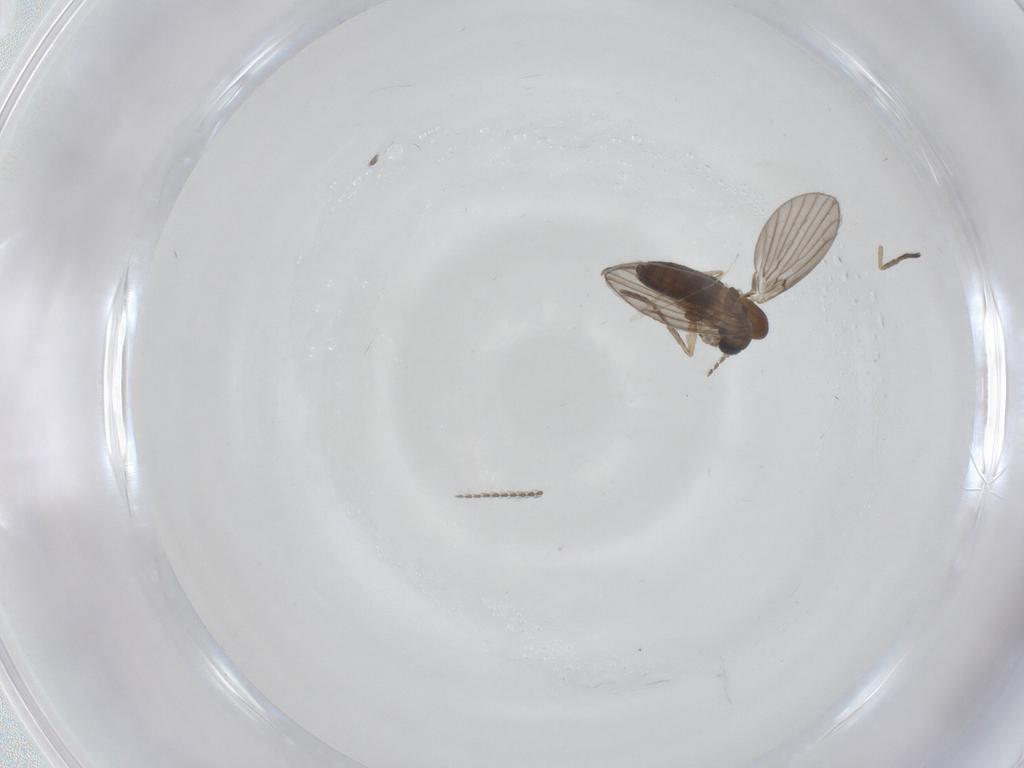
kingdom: Animalia
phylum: Arthropoda
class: Insecta
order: Diptera
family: Psychodidae
